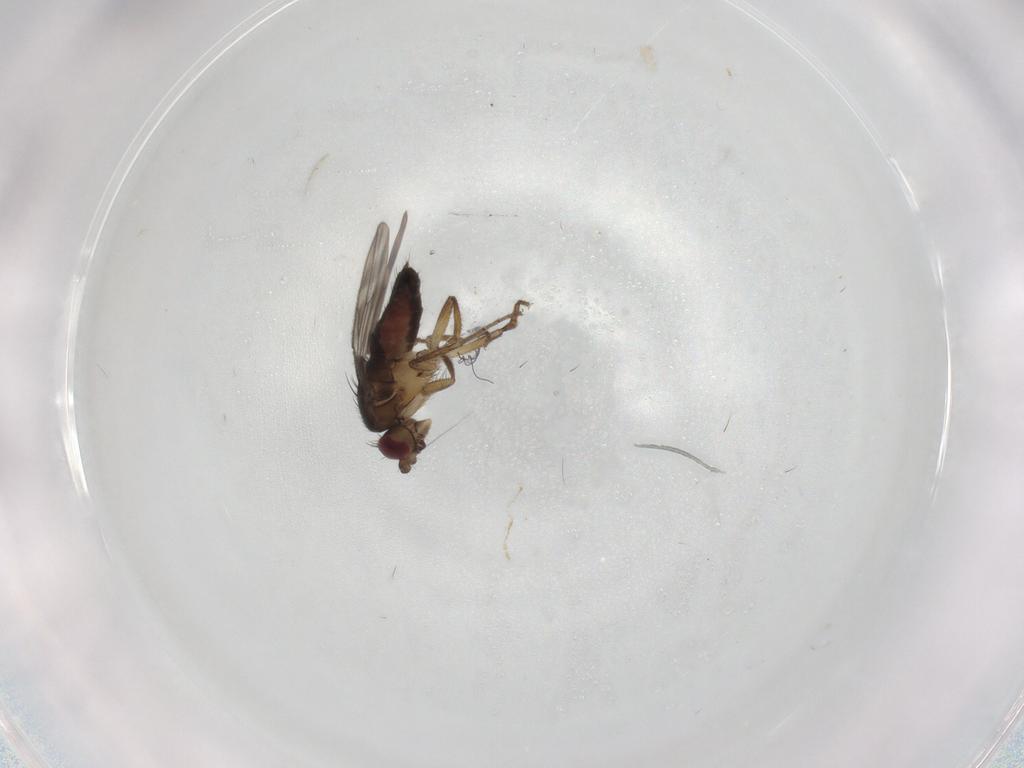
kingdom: Animalia
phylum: Arthropoda
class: Insecta
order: Diptera
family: Sphaeroceridae
